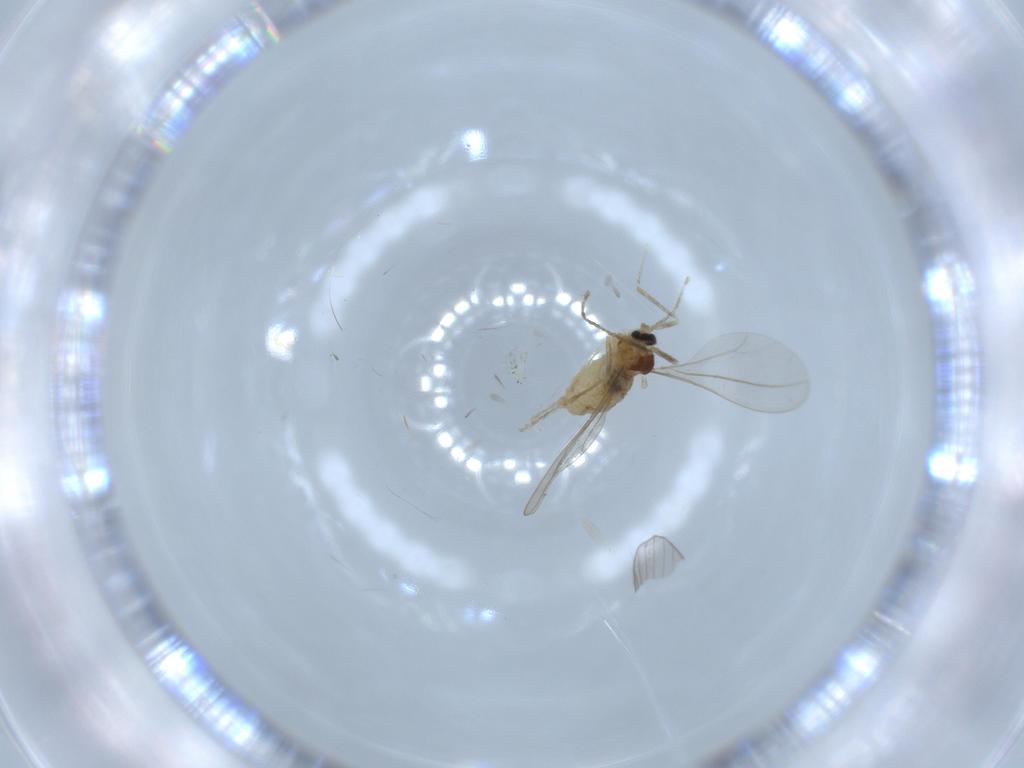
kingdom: Animalia
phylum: Arthropoda
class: Insecta
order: Diptera
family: Cecidomyiidae
